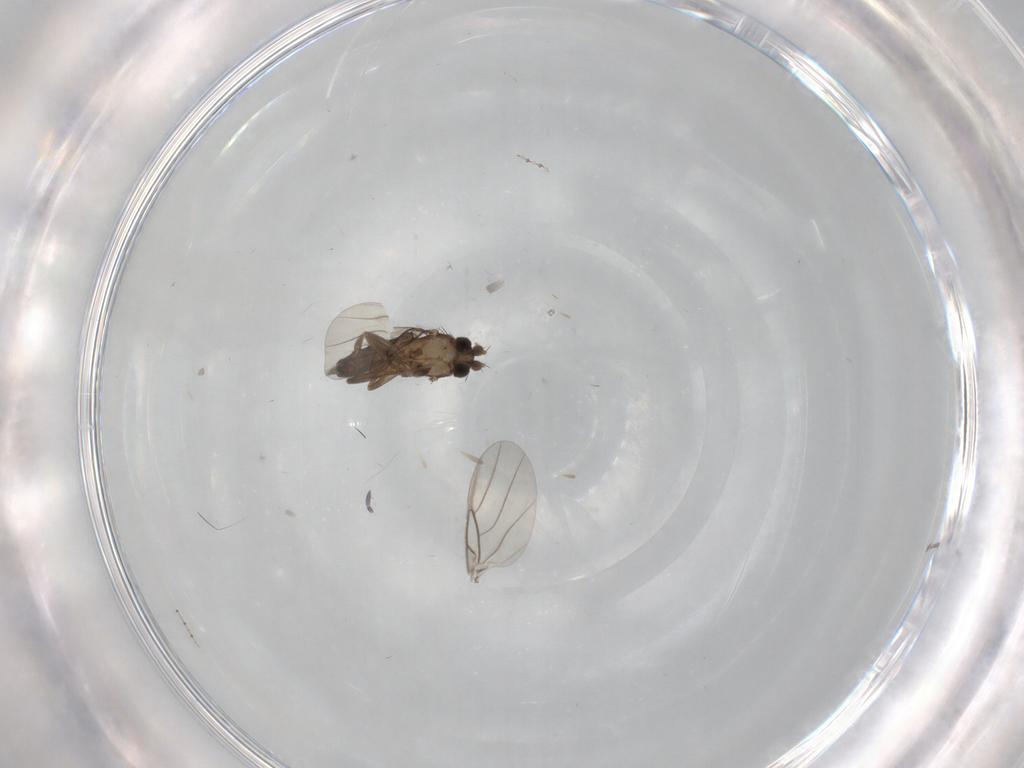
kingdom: Animalia
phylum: Arthropoda
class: Insecta
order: Diptera
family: Phoridae
